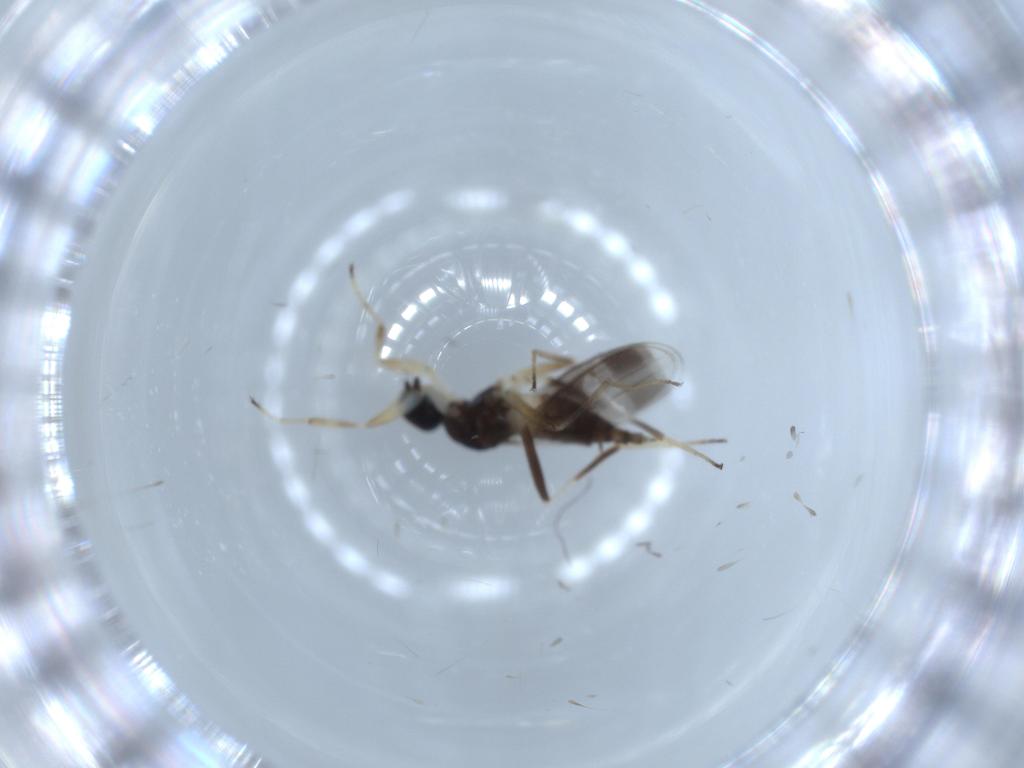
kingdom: Animalia
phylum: Arthropoda
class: Insecta
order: Diptera
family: Hybotidae
